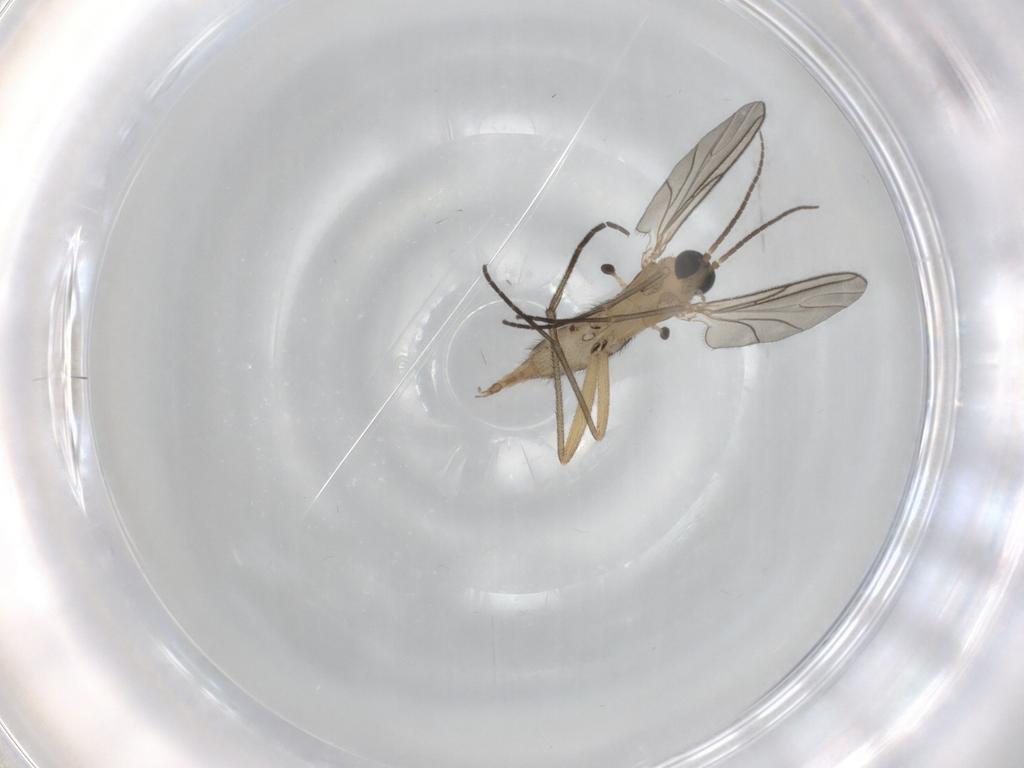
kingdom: Animalia
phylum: Arthropoda
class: Insecta
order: Diptera
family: Sciaridae
